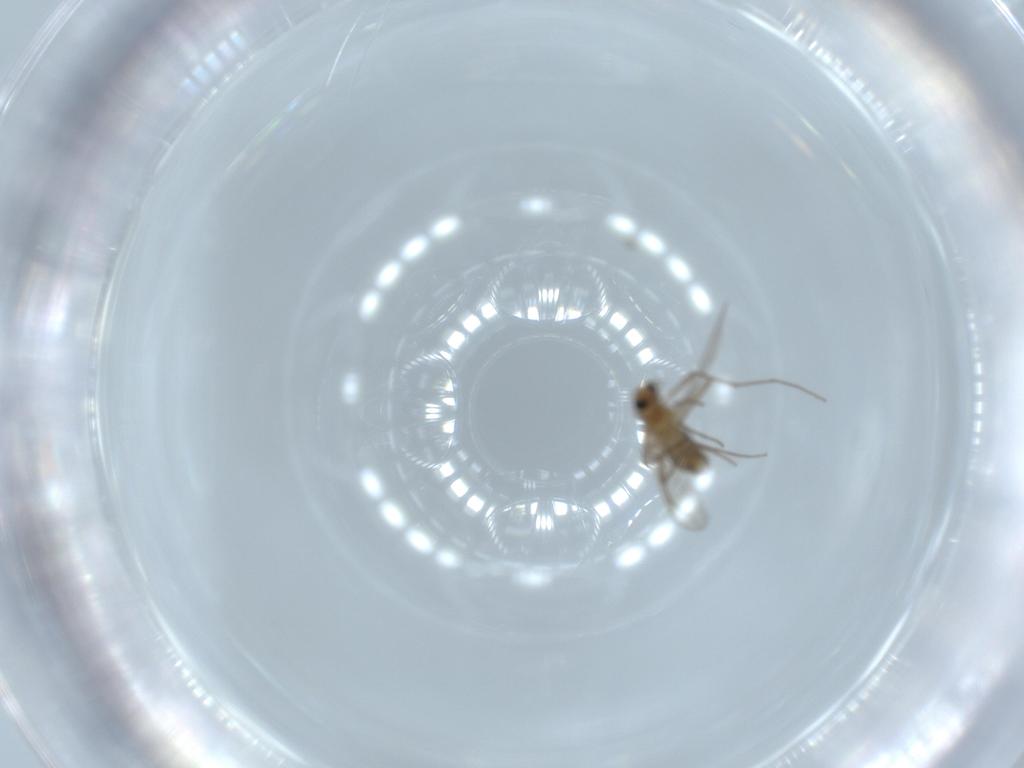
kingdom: Animalia
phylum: Arthropoda
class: Insecta
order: Diptera
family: Chironomidae
